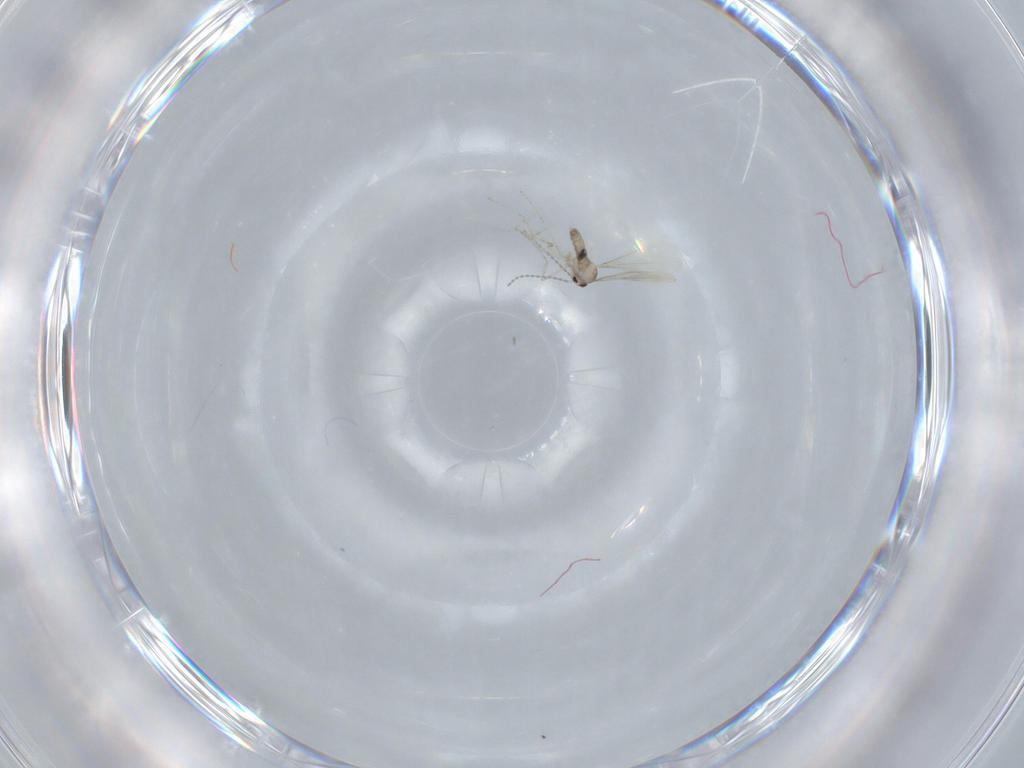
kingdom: Animalia
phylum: Arthropoda
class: Insecta
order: Diptera
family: Cecidomyiidae
